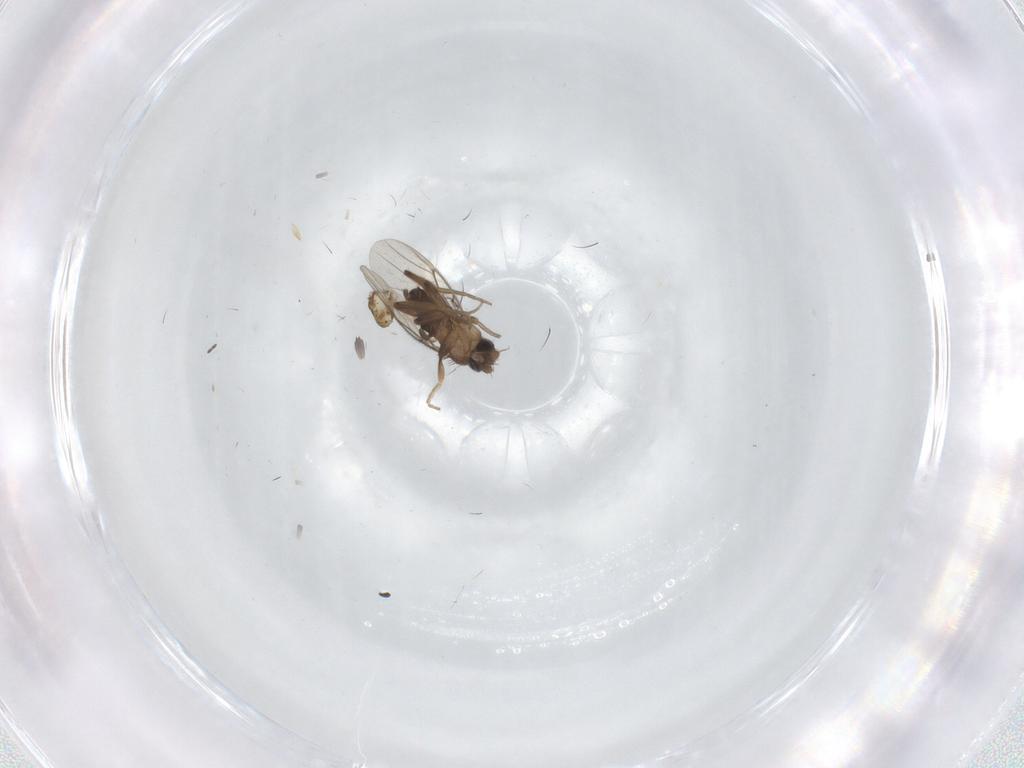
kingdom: Animalia
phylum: Arthropoda
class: Insecta
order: Diptera
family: Phoridae
